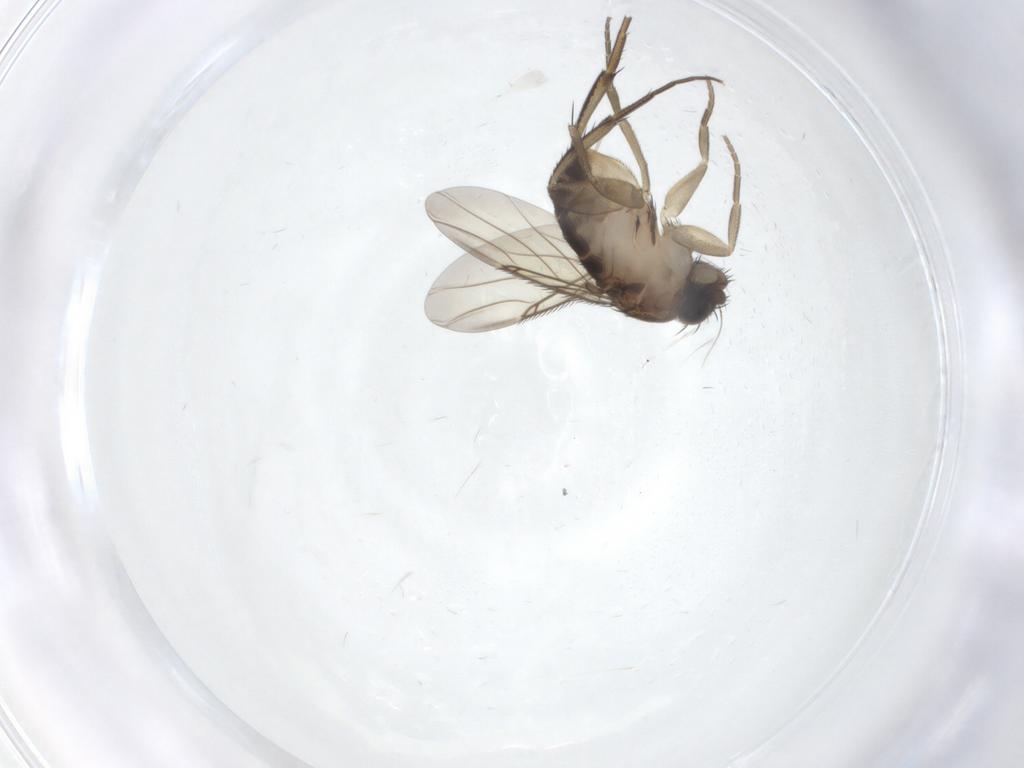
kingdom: Animalia
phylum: Arthropoda
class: Insecta
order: Diptera
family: Phoridae
